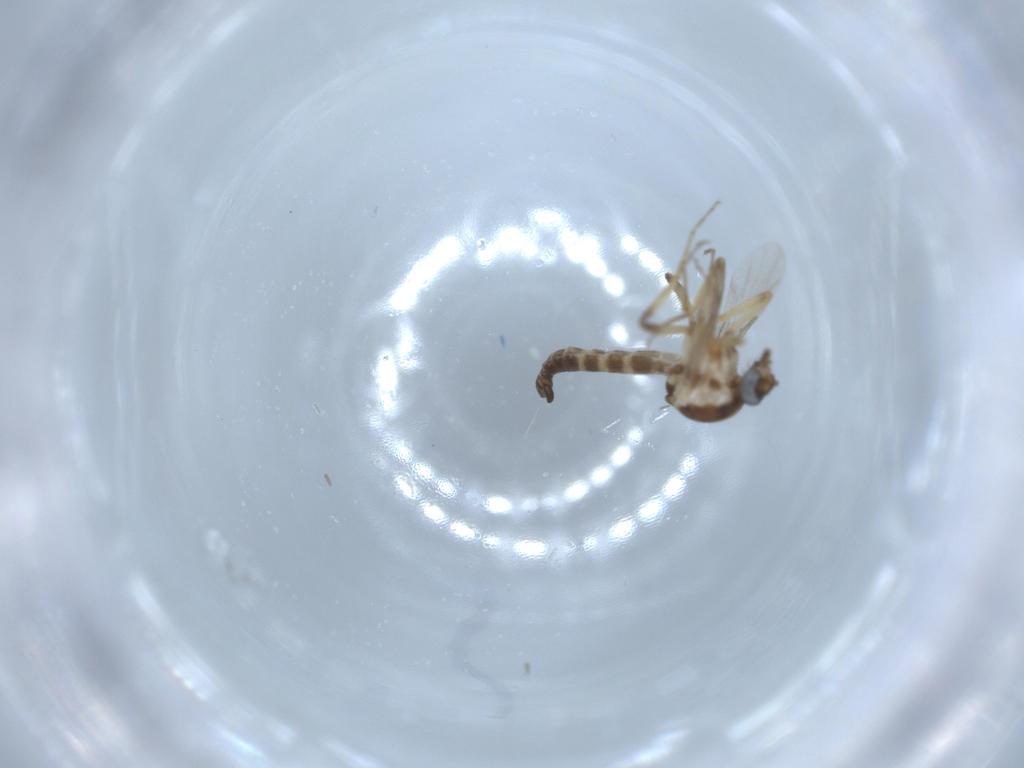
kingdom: Animalia
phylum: Arthropoda
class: Insecta
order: Diptera
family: Ceratopogonidae
